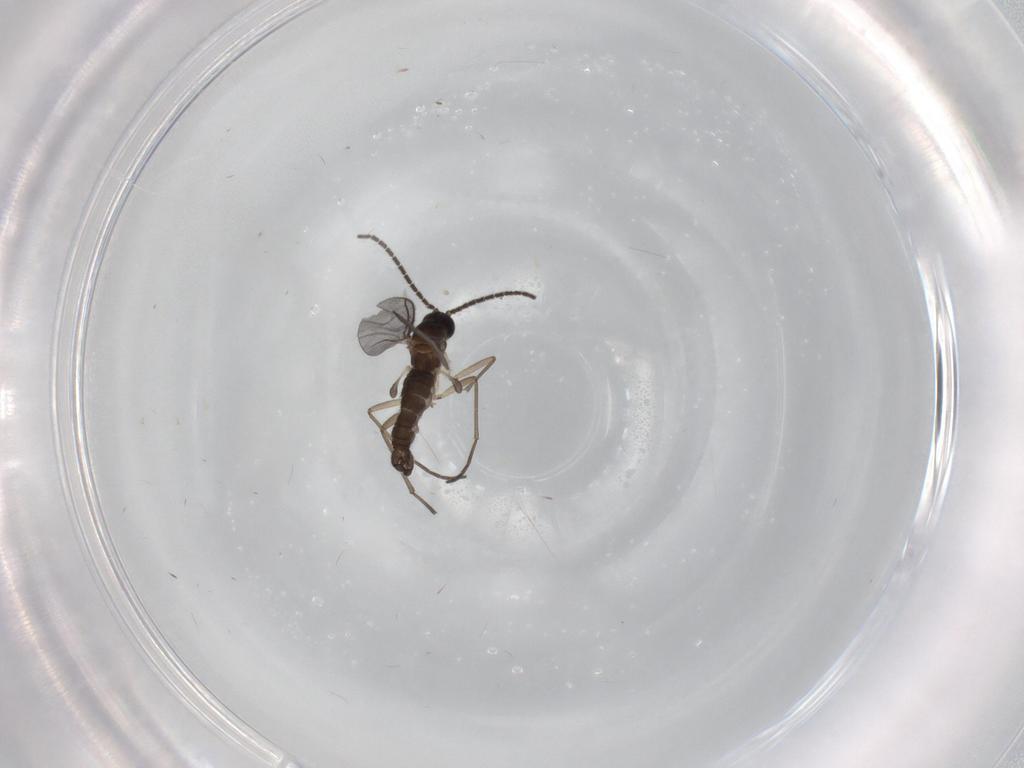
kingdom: Animalia
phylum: Arthropoda
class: Insecta
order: Diptera
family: Sciaridae
